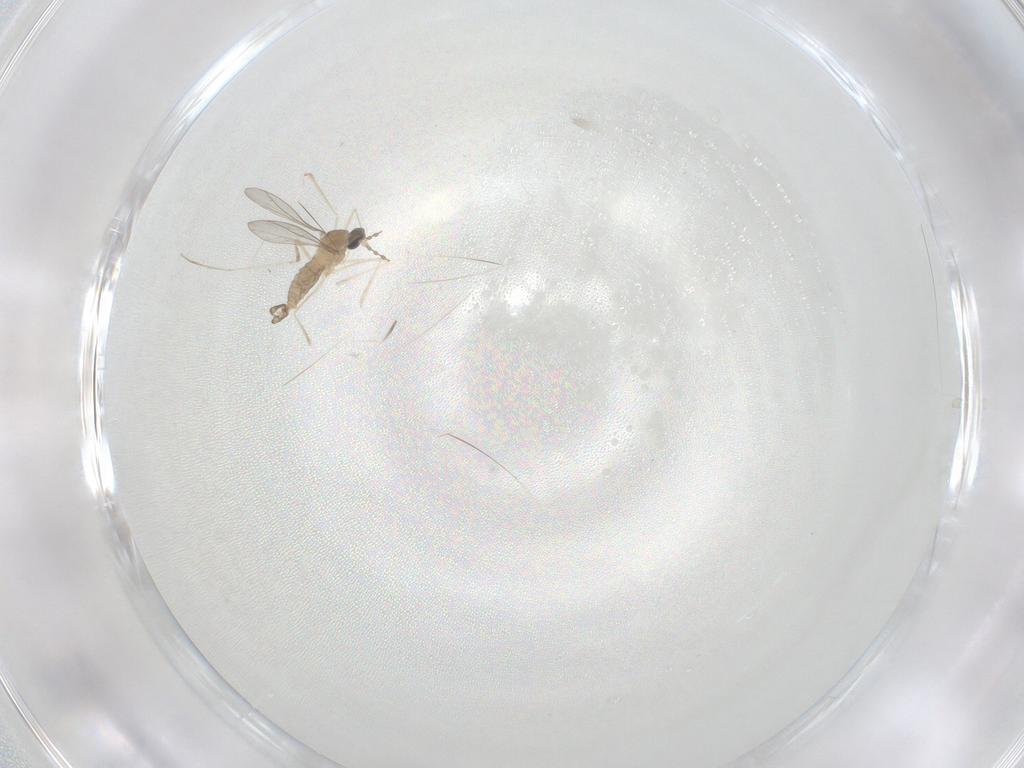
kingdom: Animalia
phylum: Arthropoda
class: Insecta
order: Diptera
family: Cecidomyiidae
